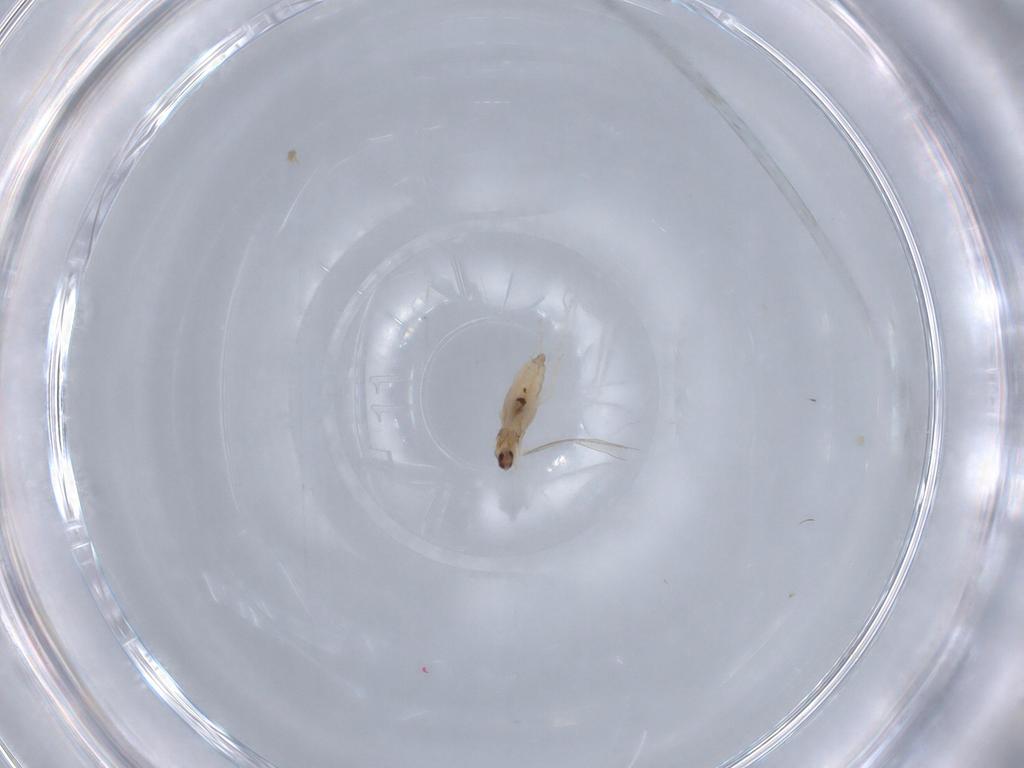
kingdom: Animalia
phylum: Arthropoda
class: Insecta
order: Diptera
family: Cecidomyiidae
